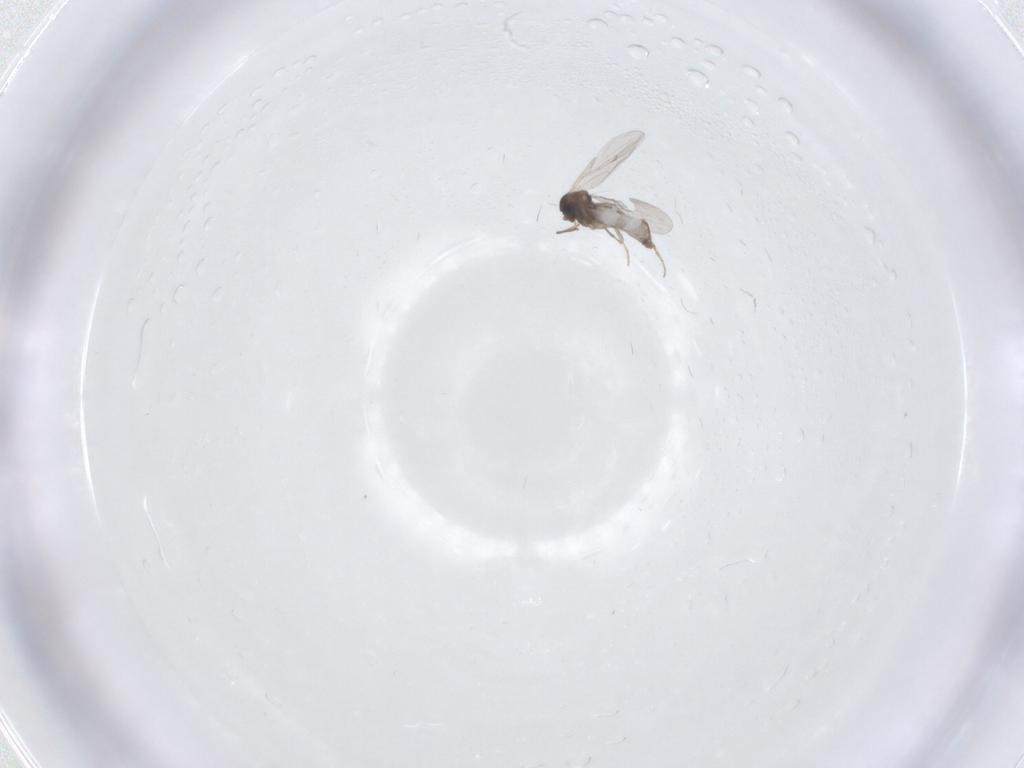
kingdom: Animalia
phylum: Arthropoda
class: Insecta
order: Diptera
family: Ceratopogonidae
